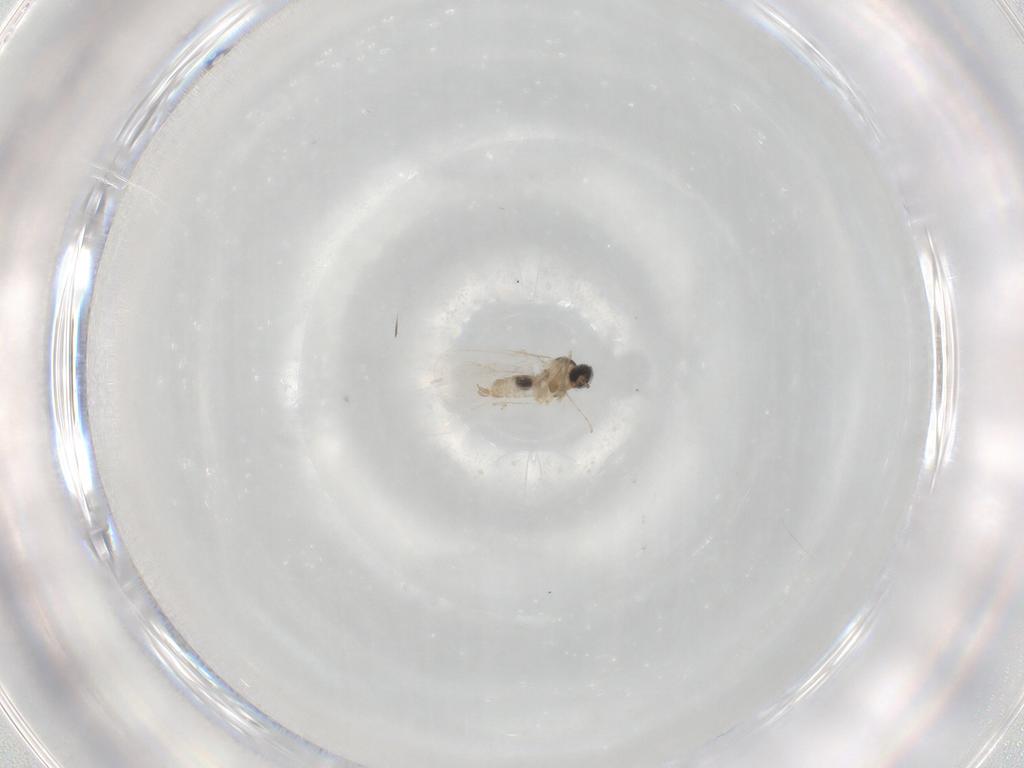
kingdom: Animalia
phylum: Arthropoda
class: Insecta
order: Diptera
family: Cecidomyiidae
